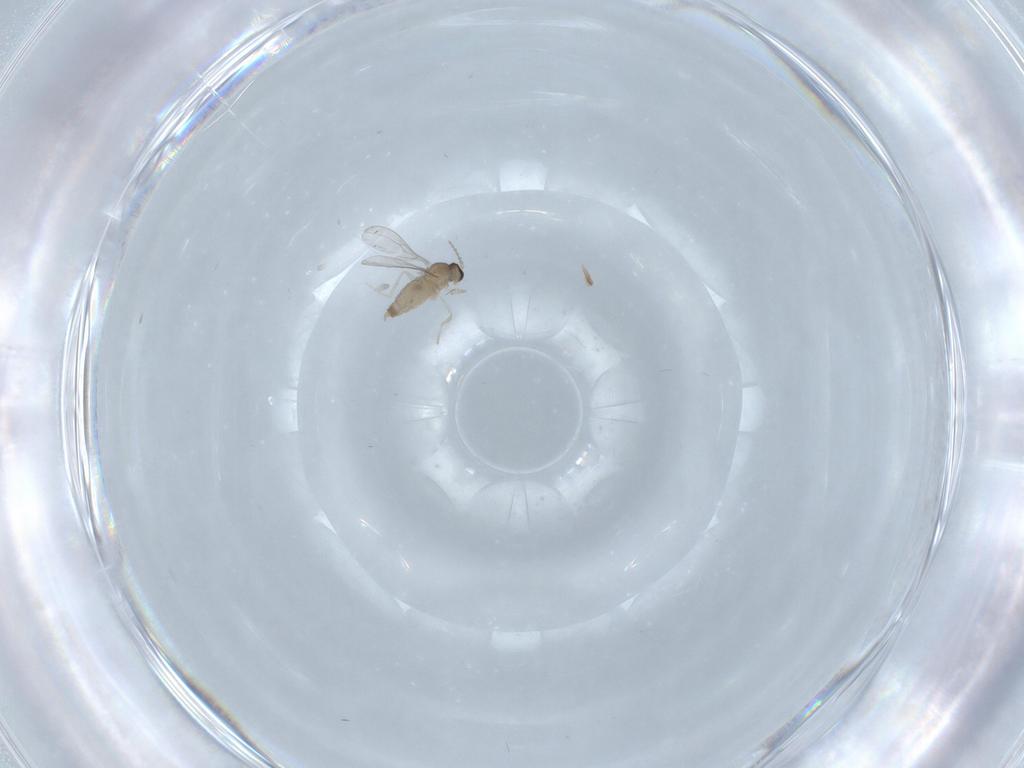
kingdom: Animalia
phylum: Arthropoda
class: Insecta
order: Diptera
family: Cecidomyiidae
